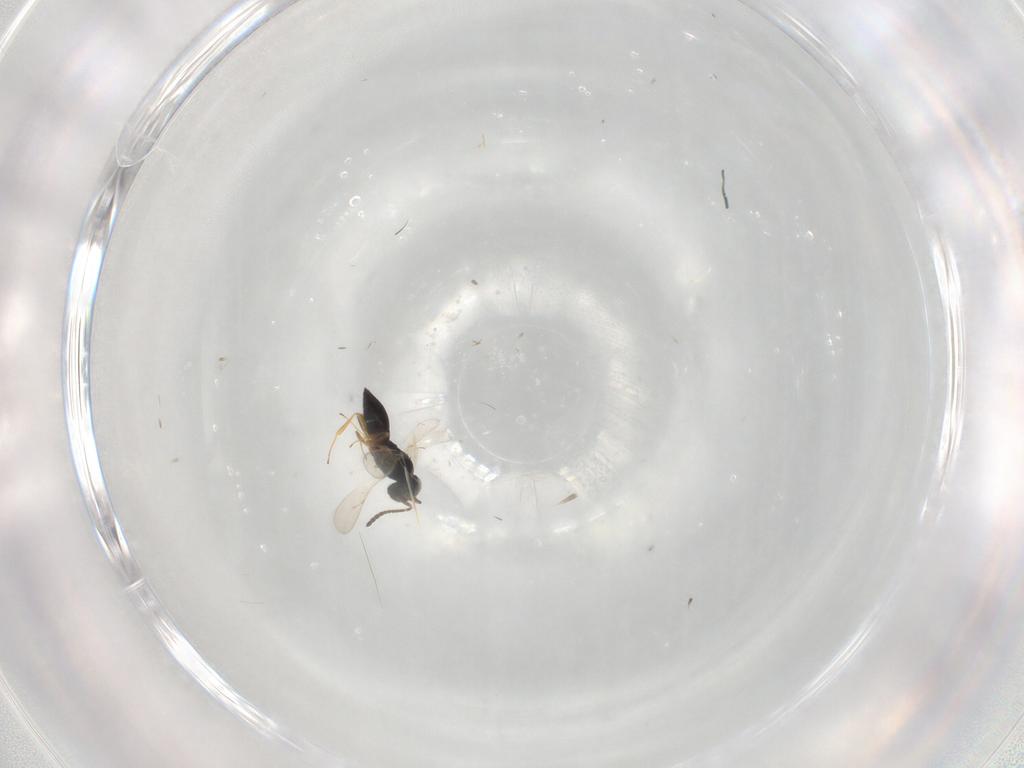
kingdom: Animalia
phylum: Arthropoda
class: Insecta
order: Hymenoptera
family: Scelionidae
